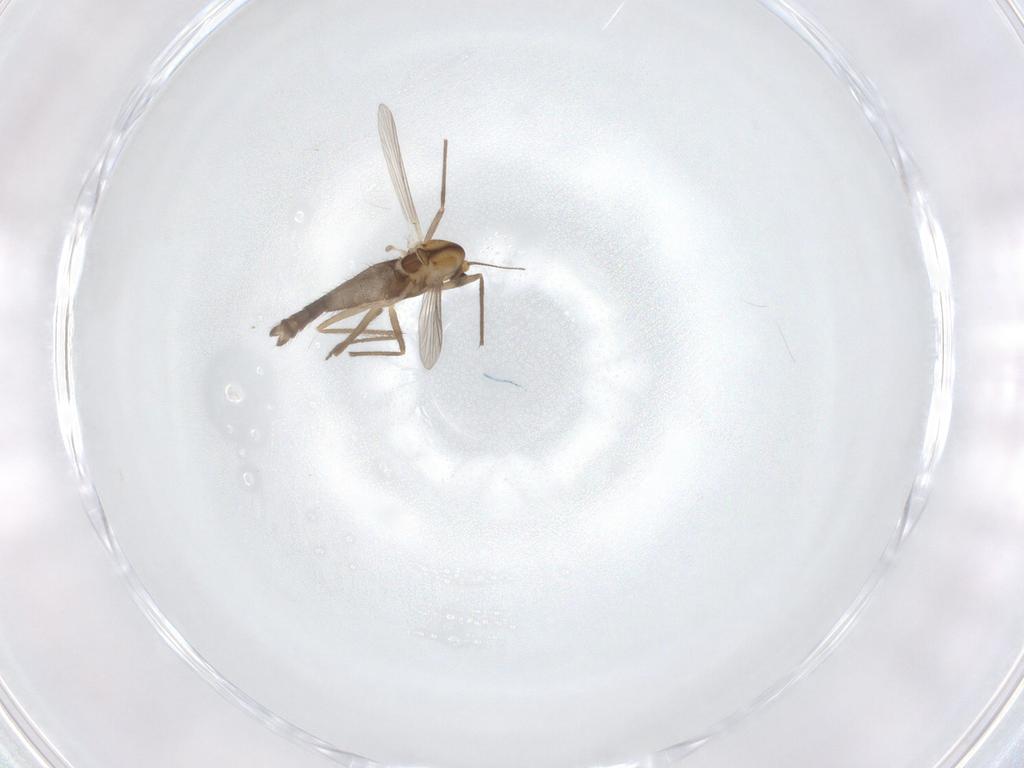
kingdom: Animalia
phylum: Arthropoda
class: Insecta
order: Diptera
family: Chironomidae
